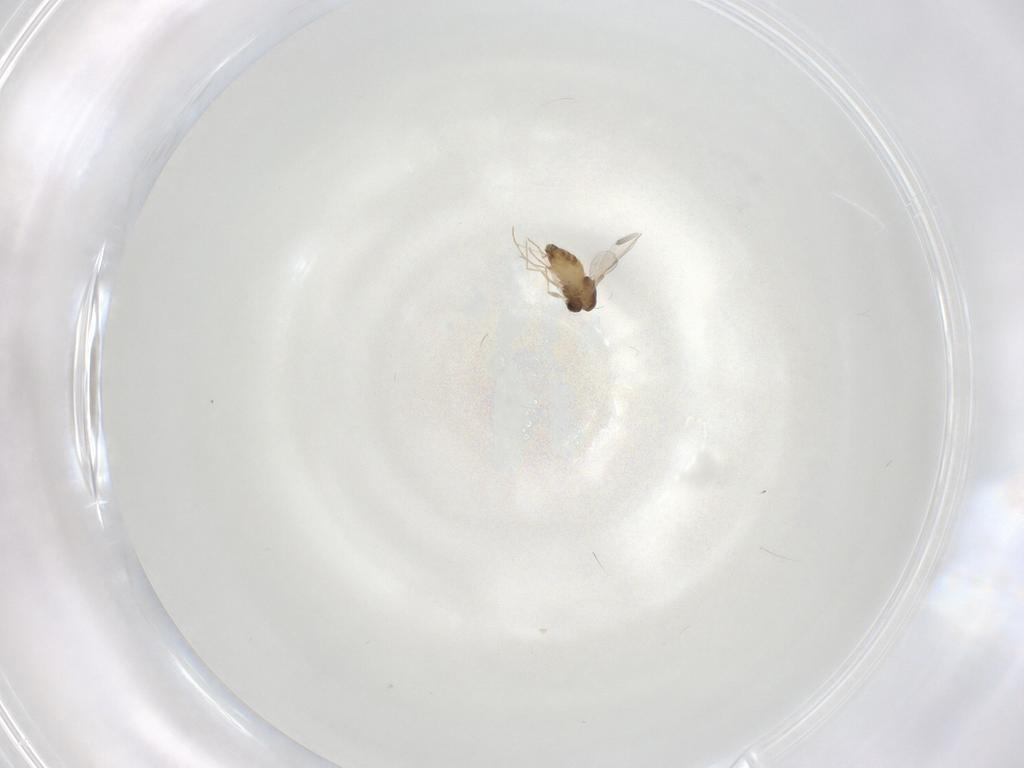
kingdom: Animalia
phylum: Arthropoda
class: Insecta
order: Diptera
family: Chironomidae
